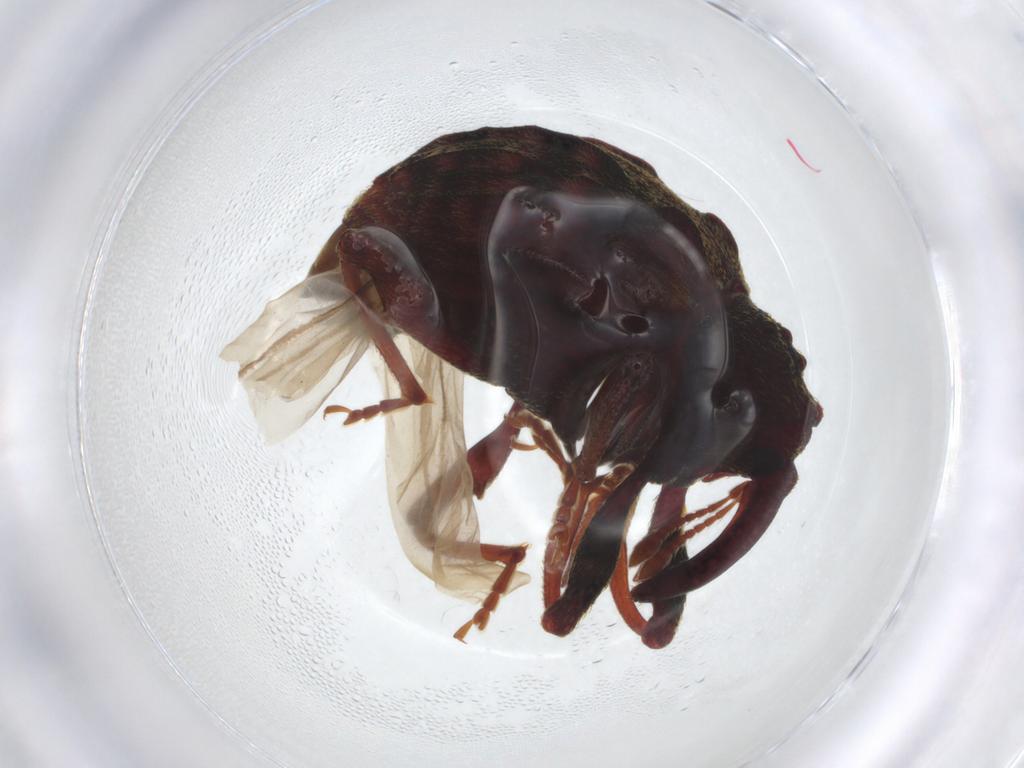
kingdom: Animalia
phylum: Arthropoda
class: Insecta
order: Coleoptera
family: Curculionidae
